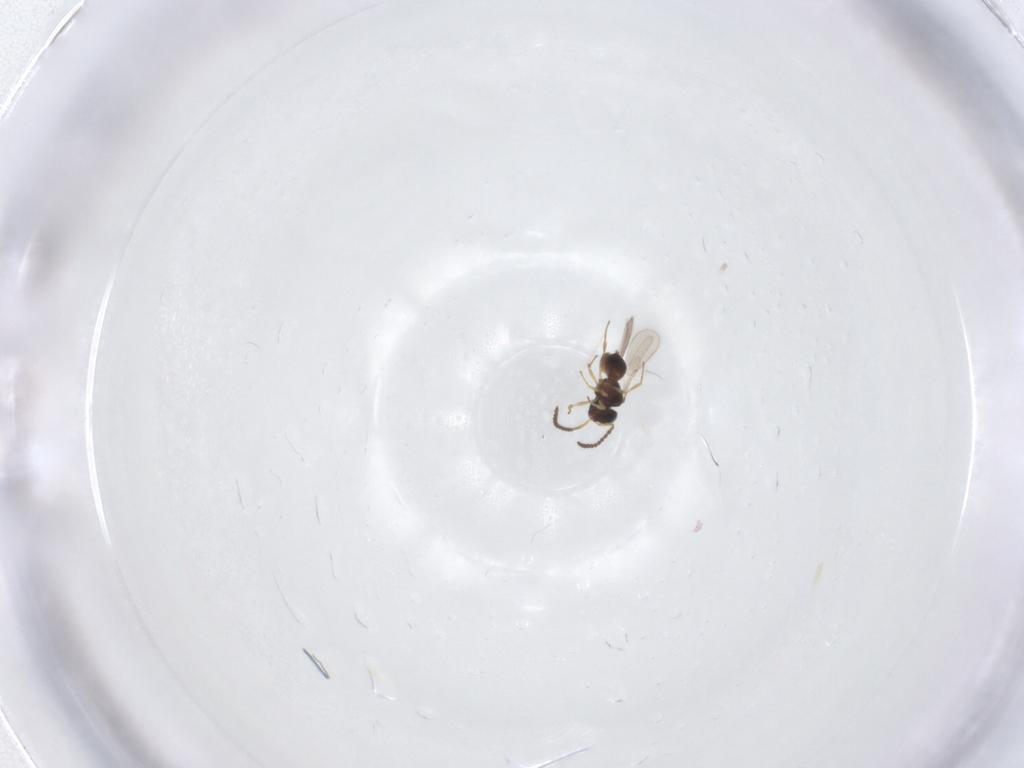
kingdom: Animalia
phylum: Arthropoda
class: Insecta
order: Hymenoptera
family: Scelionidae
